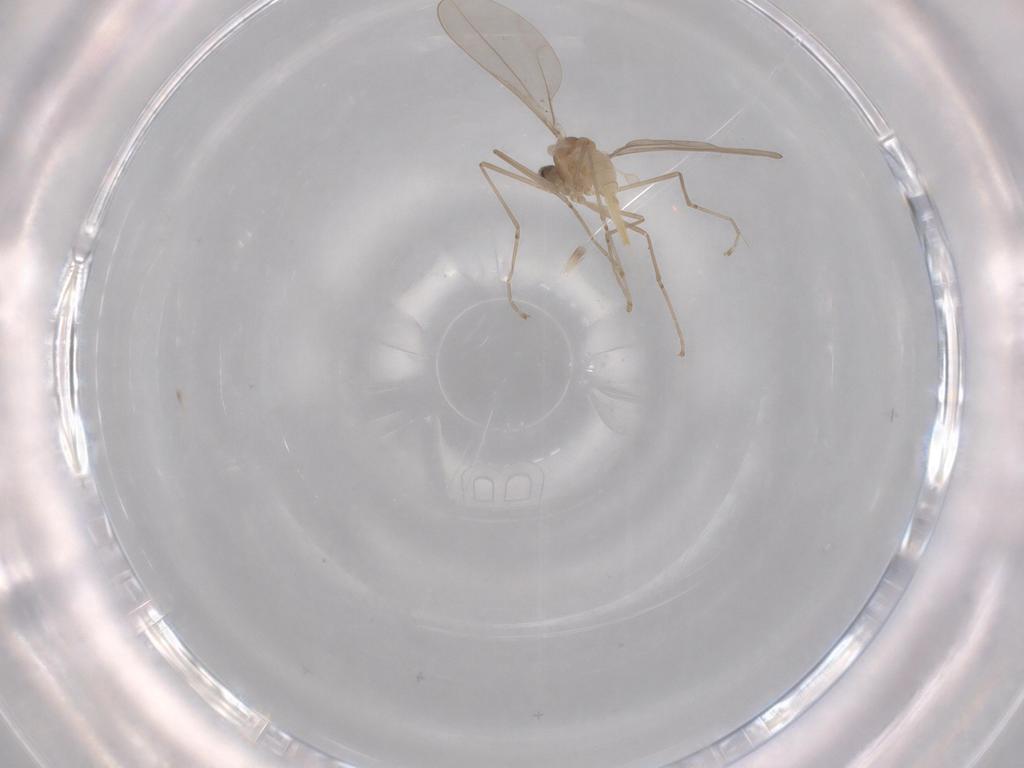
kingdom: Animalia
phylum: Arthropoda
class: Insecta
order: Diptera
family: Cecidomyiidae
